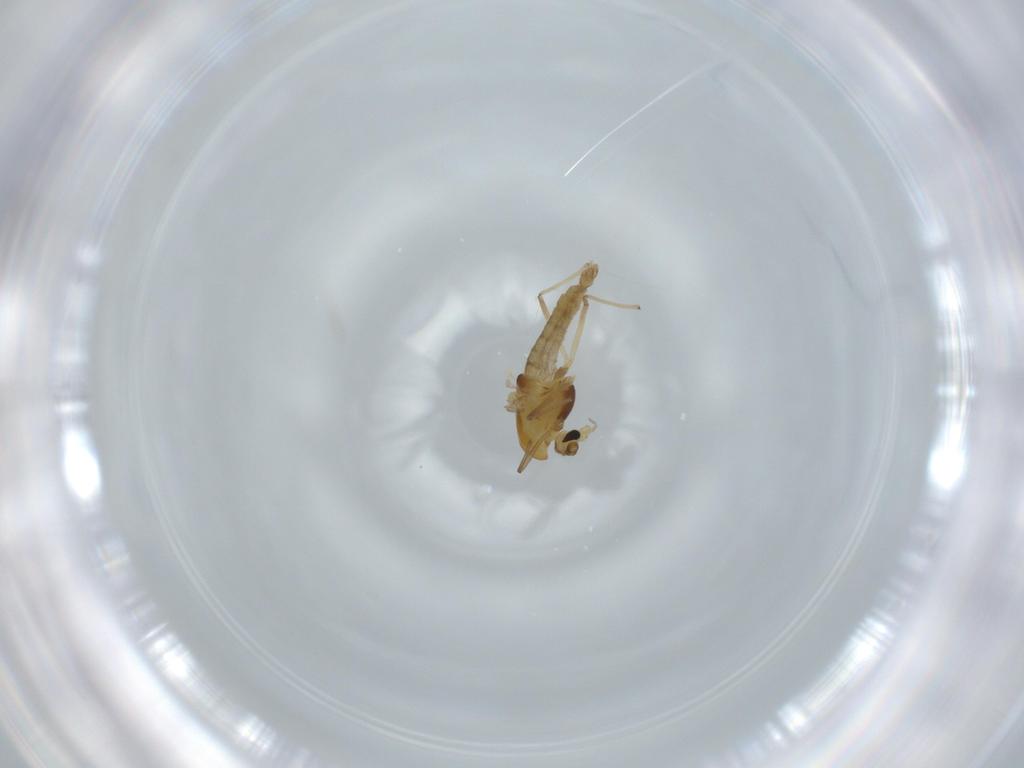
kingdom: Animalia
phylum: Arthropoda
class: Insecta
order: Diptera
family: Chironomidae
